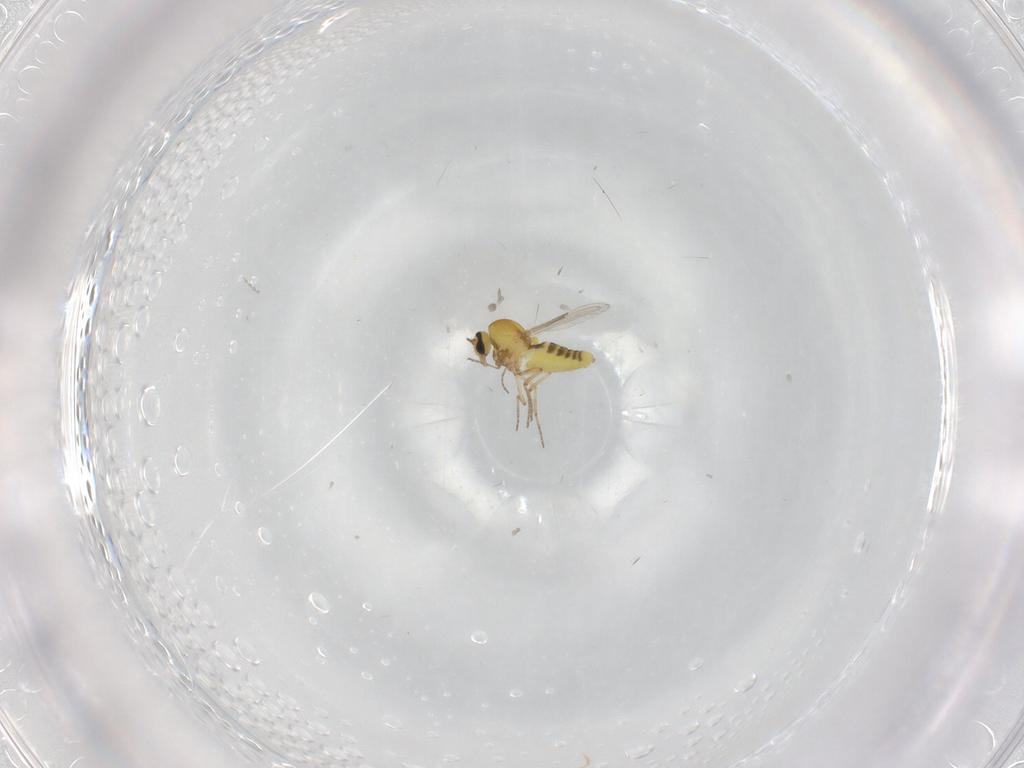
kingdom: Animalia
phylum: Arthropoda
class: Insecta
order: Diptera
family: Ceratopogonidae
